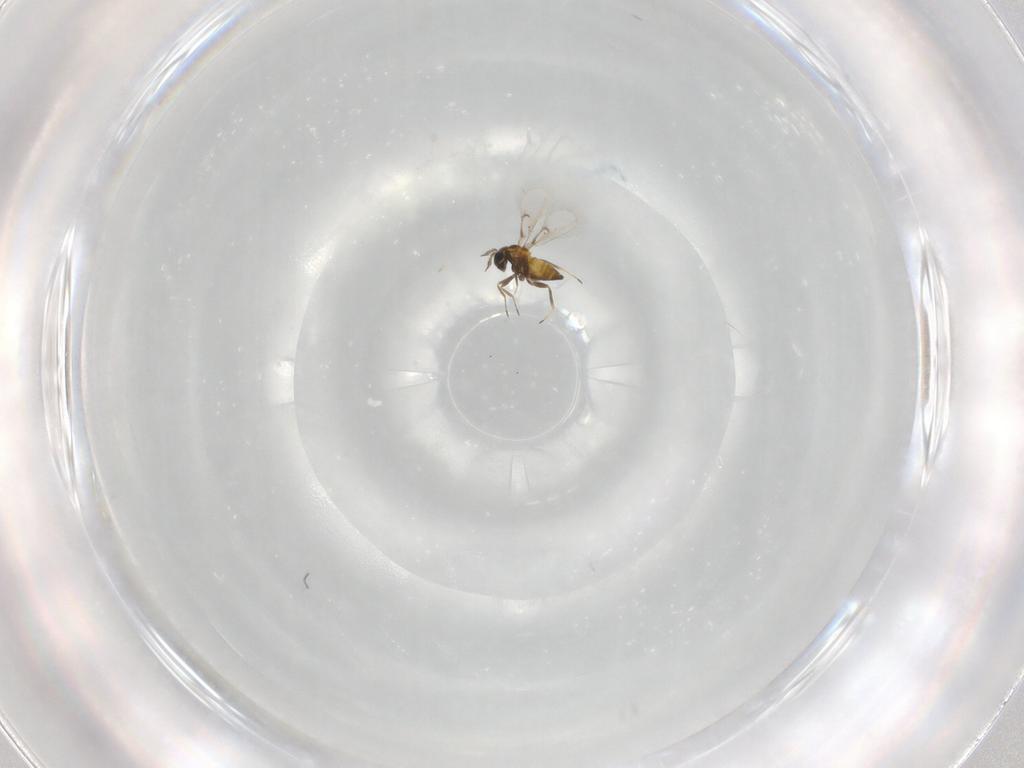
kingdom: Animalia
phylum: Arthropoda
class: Insecta
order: Hymenoptera
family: Trichogrammatidae
